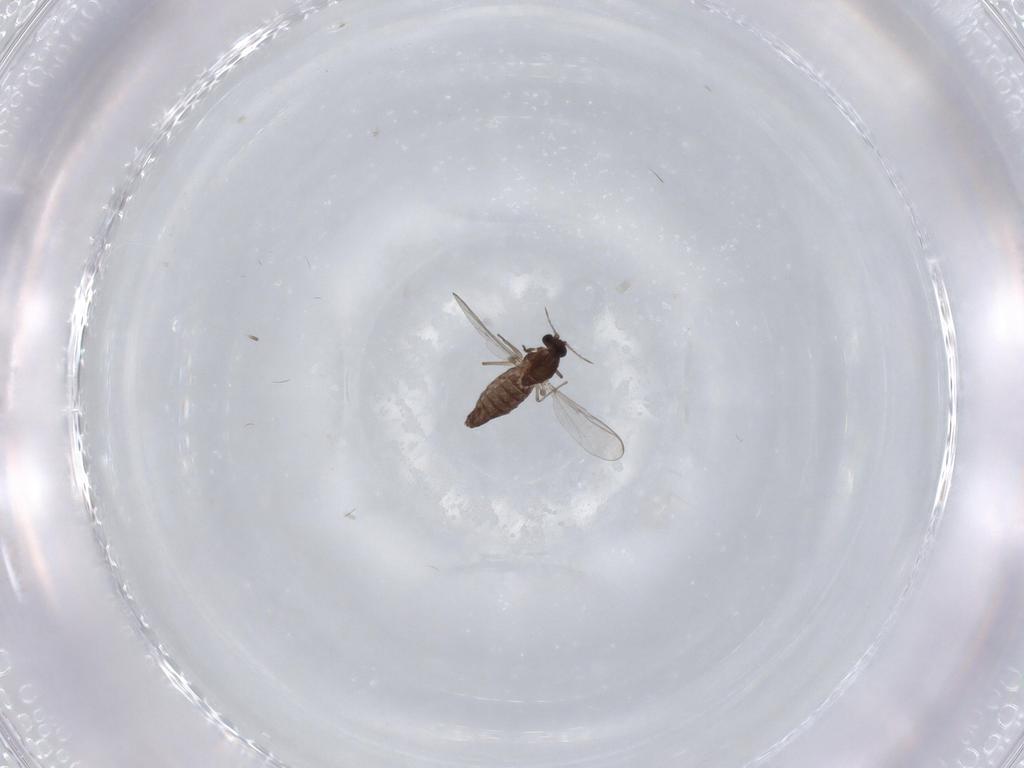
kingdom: Animalia
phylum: Arthropoda
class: Insecta
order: Diptera
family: Chironomidae
